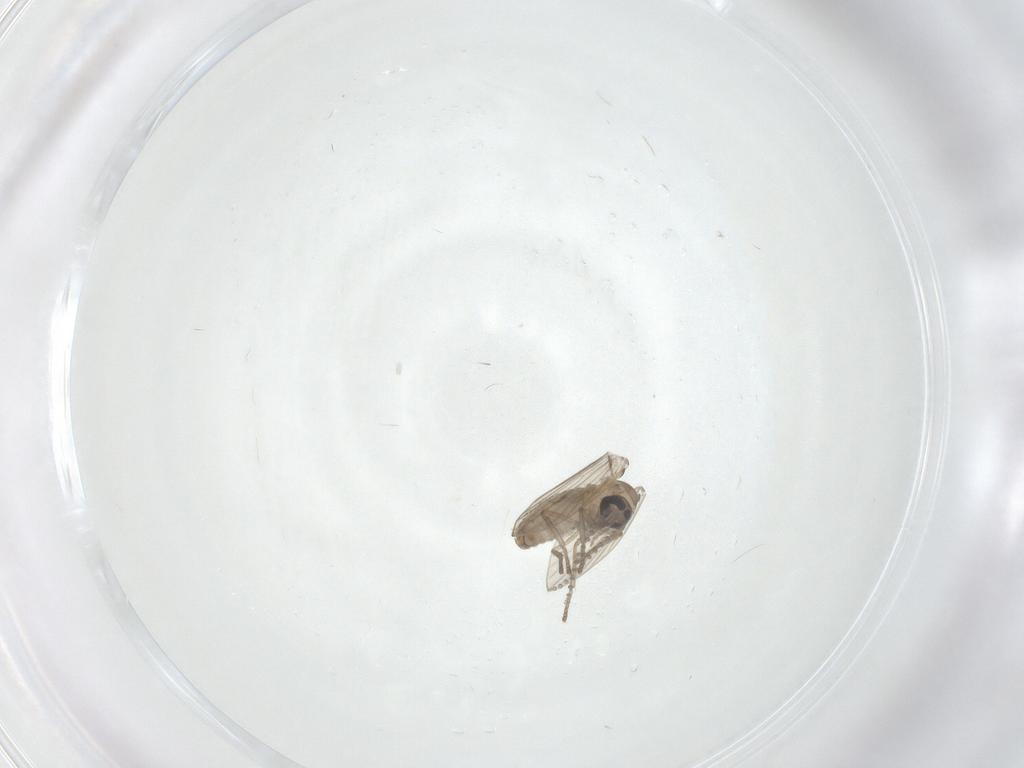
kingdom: Animalia
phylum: Arthropoda
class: Insecta
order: Diptera
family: Psychodidae
